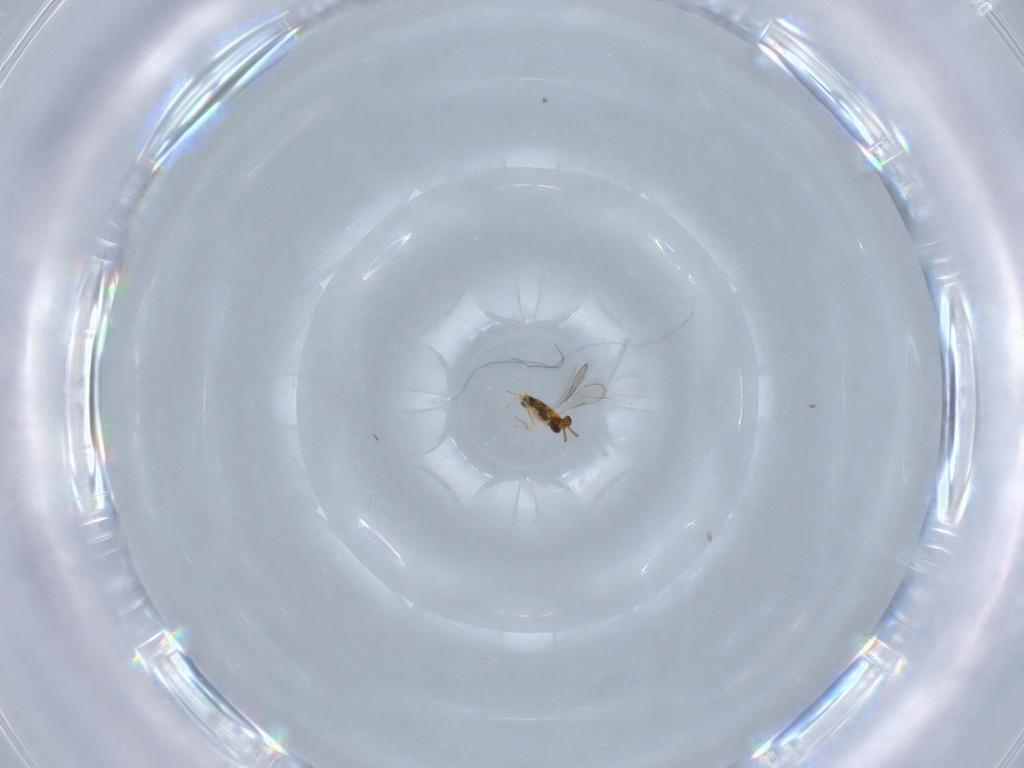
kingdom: Animalia
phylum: Arthropoda
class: Insecta
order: Hymenoptera
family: Aphelinidae
